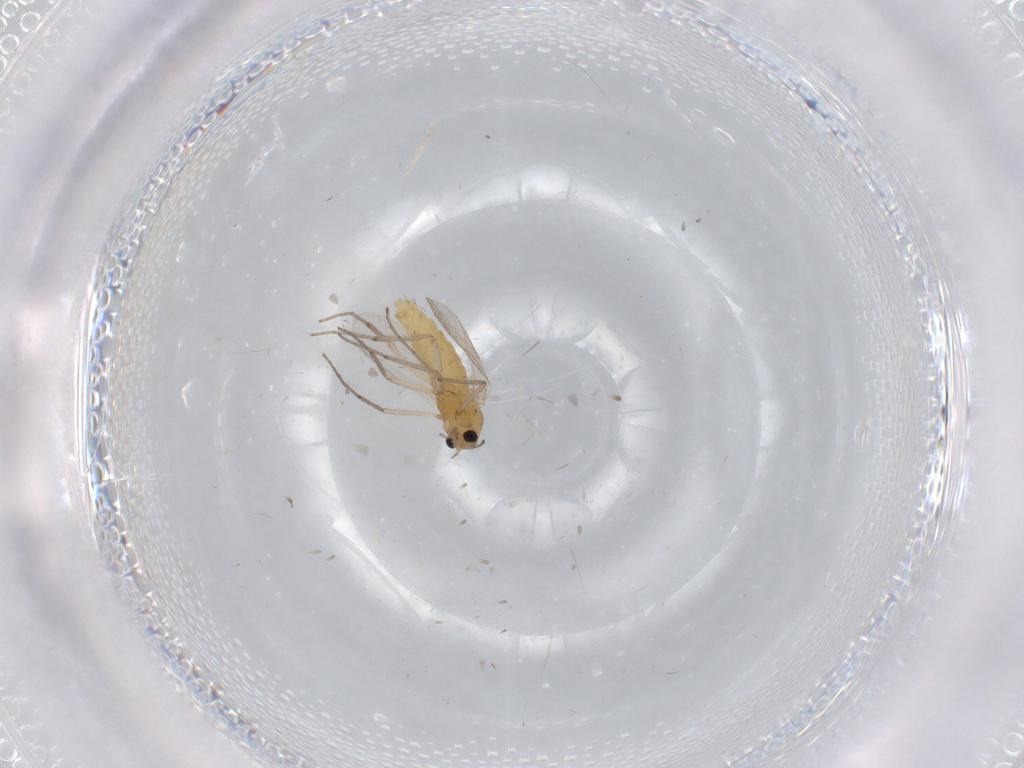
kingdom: Animalia
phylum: Arthropoda
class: Insecta
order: Diptera
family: Chironomidae
